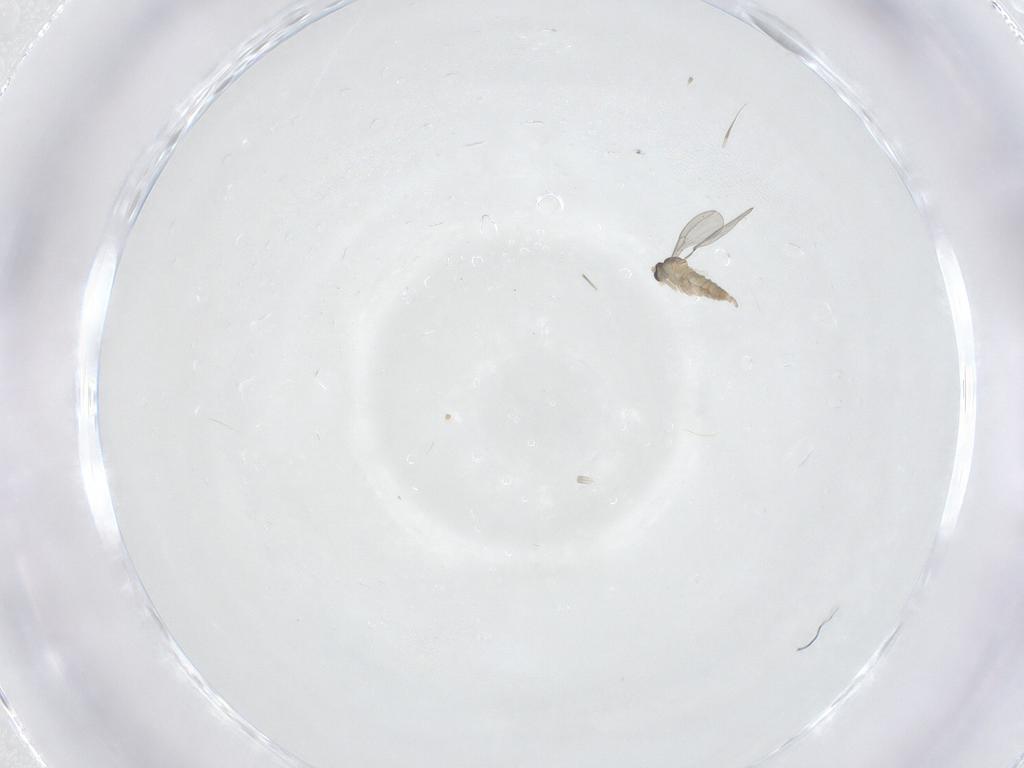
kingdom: Animalia
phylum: Arthropoda
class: Insecta
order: Diptera
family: Cecidomyiidae
